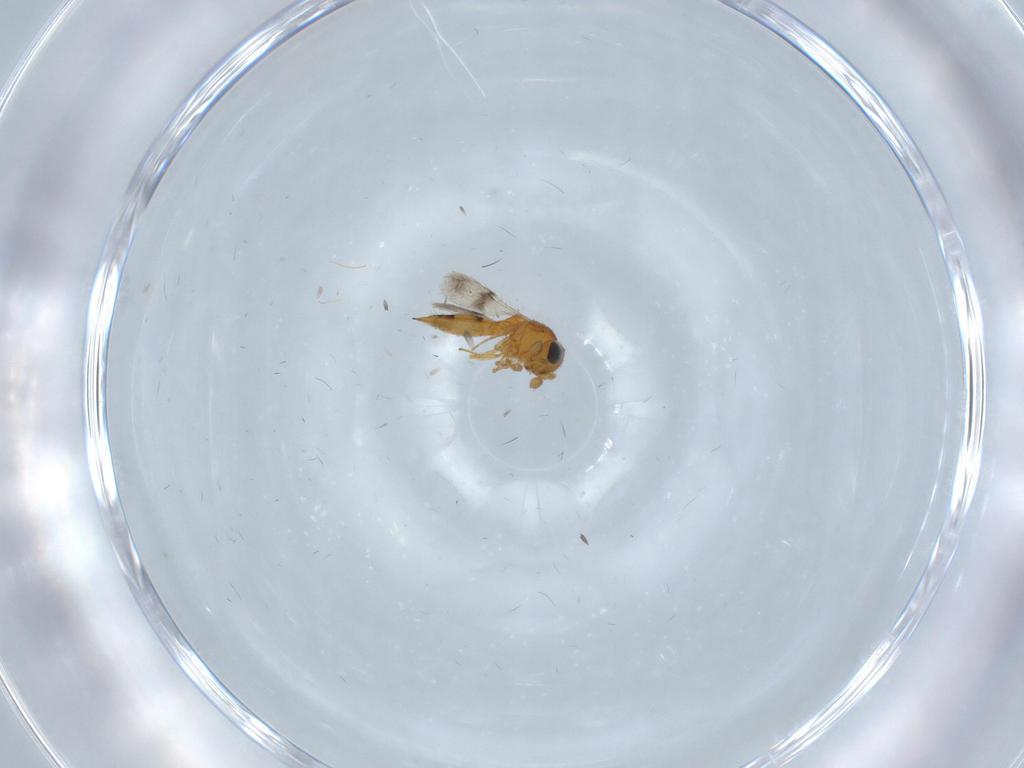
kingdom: Animalia
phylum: Arthropoda
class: Insecta
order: Hymenoptera
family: Scelionidae
